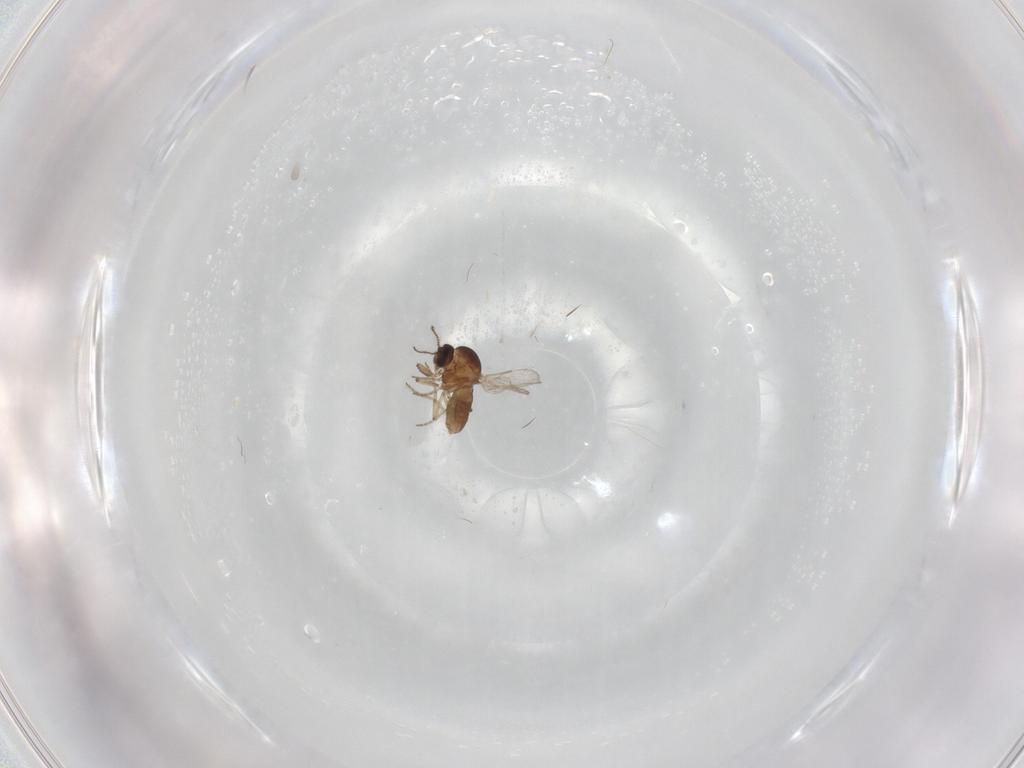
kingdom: Animalia
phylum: Arthropoda
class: Insecta
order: Diptera
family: Ceratopogonidae
